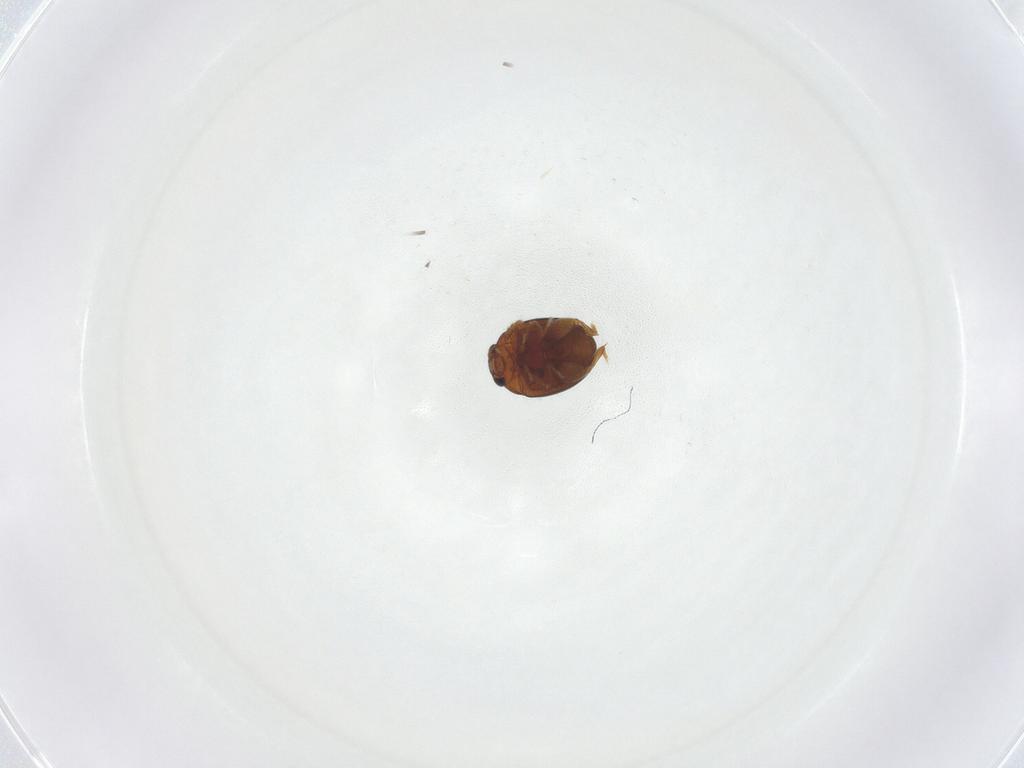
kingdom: Animalia
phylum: Arthropoda
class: Insecta
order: Coleoptera
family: Chrysomelidae
